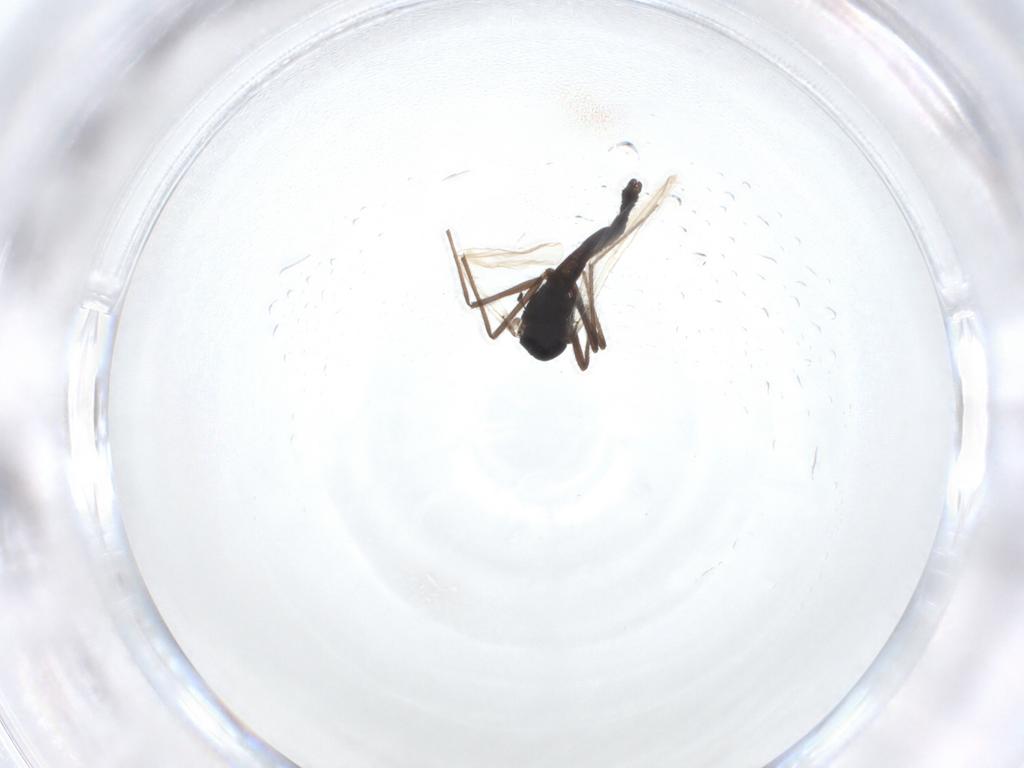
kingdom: Animalia
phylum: Arthropoda
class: Insecta
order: Diptera
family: Chironomidae
